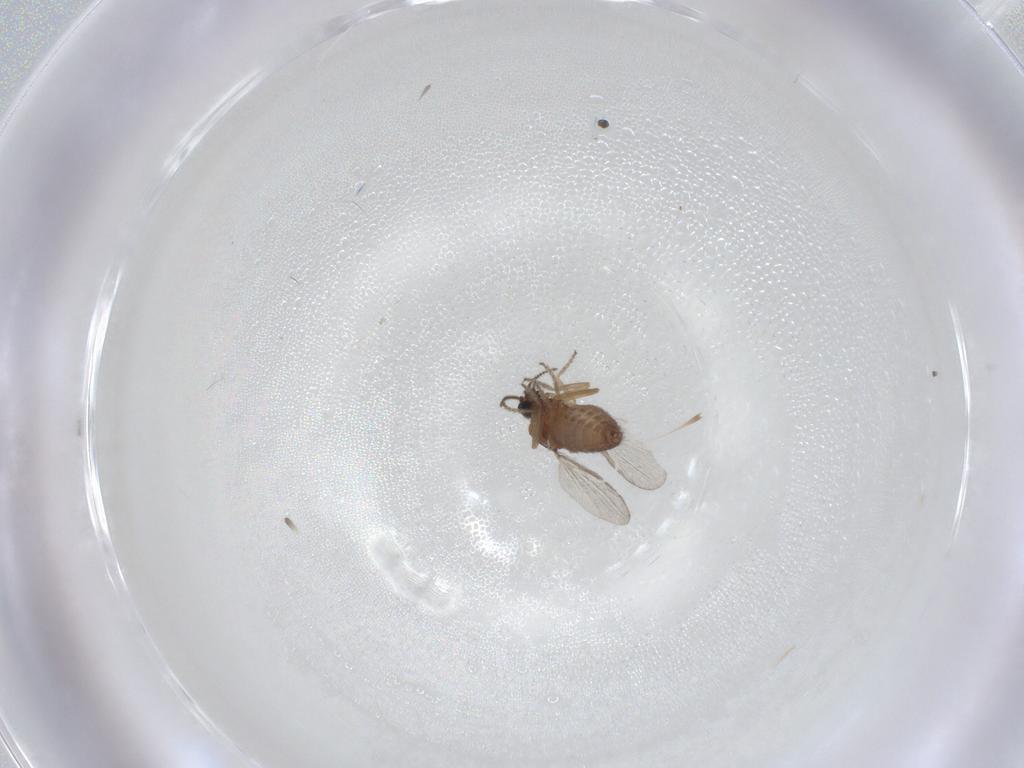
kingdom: Animalia
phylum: Arthropoda
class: Insecta
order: Diptera
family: Ceratopogonidae
